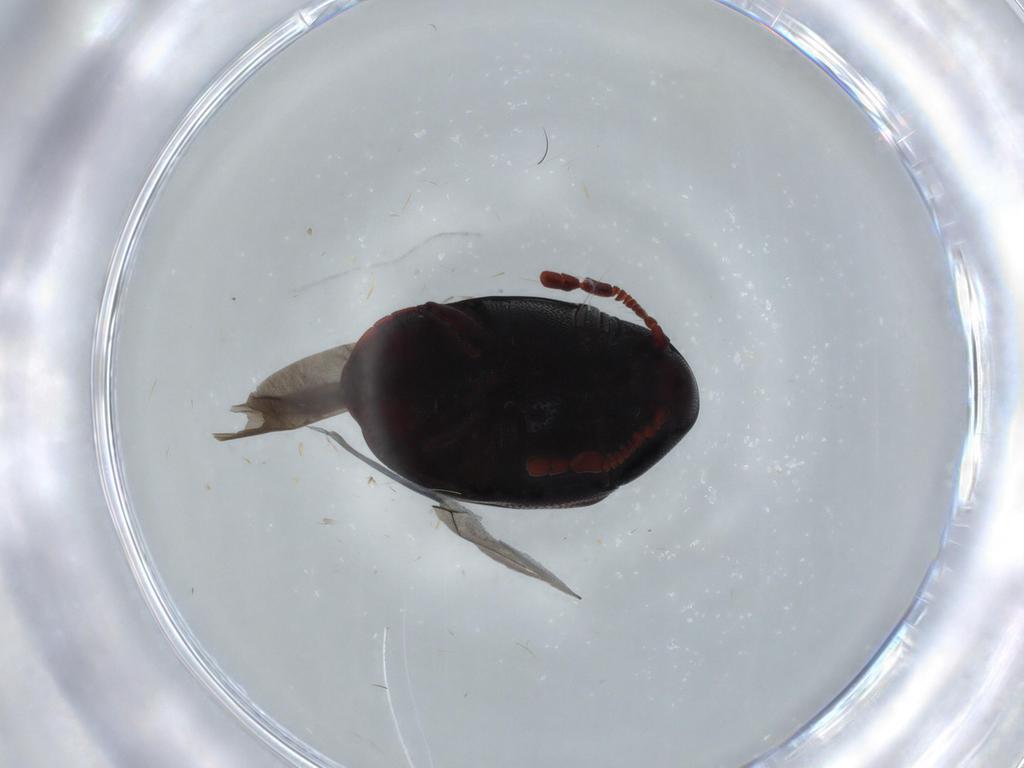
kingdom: Animalia
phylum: Arthropoda
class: Insecta
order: Coleoptera
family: Ptinidae
